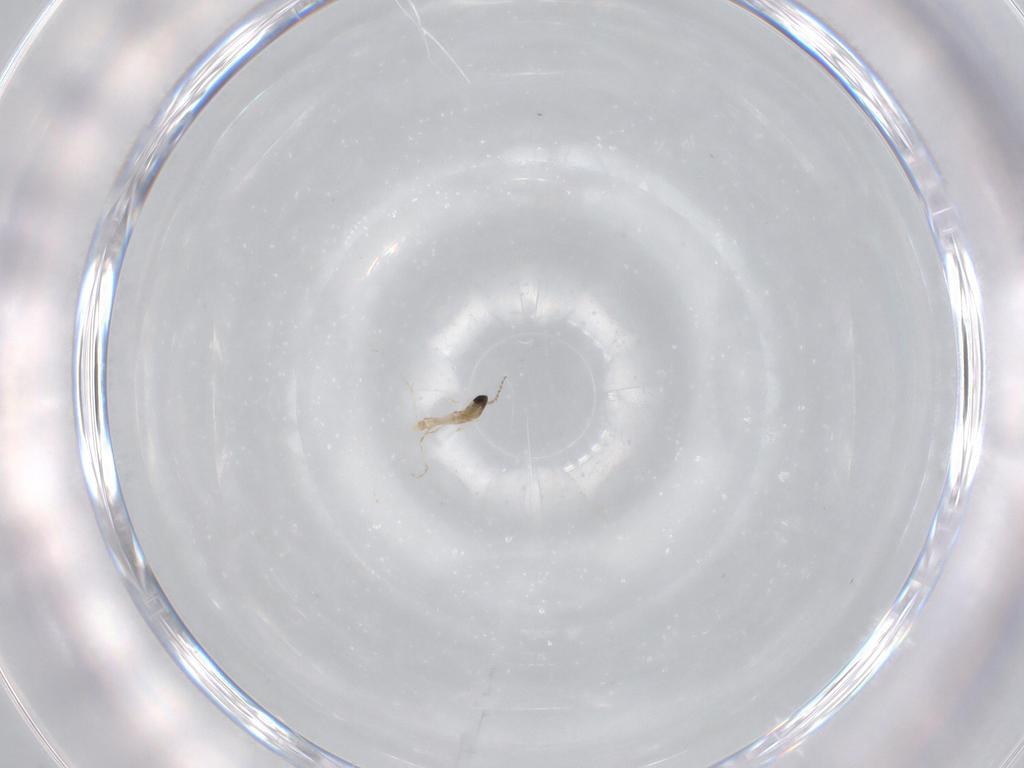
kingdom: Animalia
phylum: Arthropoda
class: Insecta
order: Diptera
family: Cecidomyiidae
